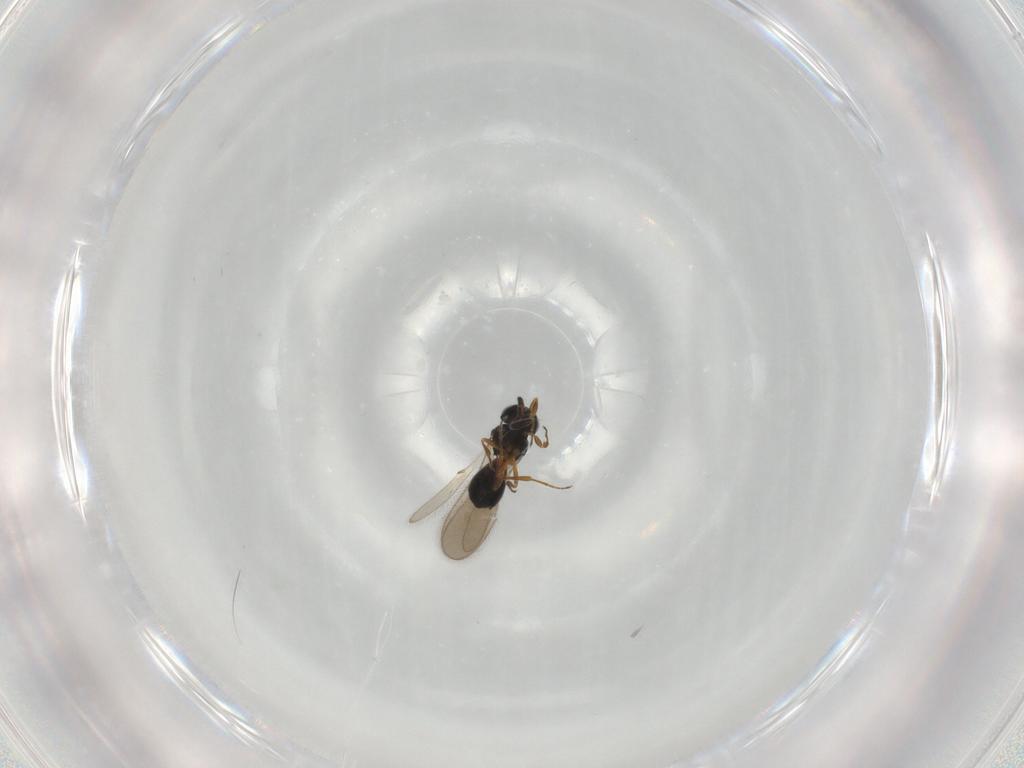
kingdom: Animalia
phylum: Arthropoda
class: Insecta
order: Hymenoptera
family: Scelionidae
